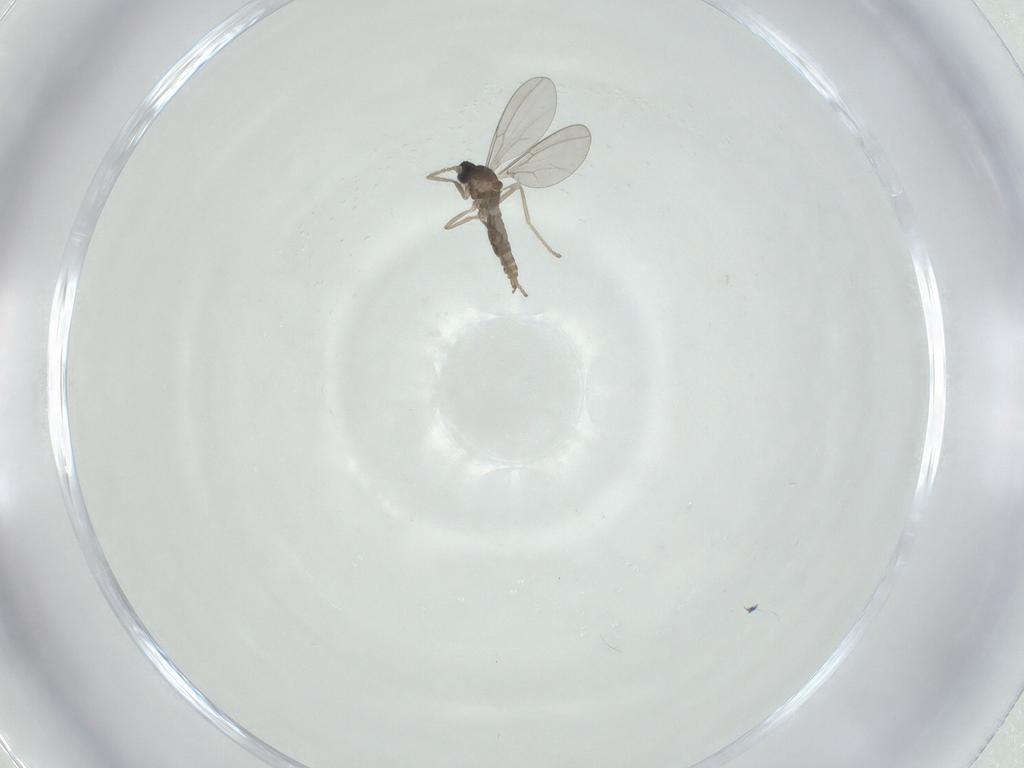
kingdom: Animalia
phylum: Arthropoda
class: Insecta
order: Diptera
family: Cecidomyiidae
